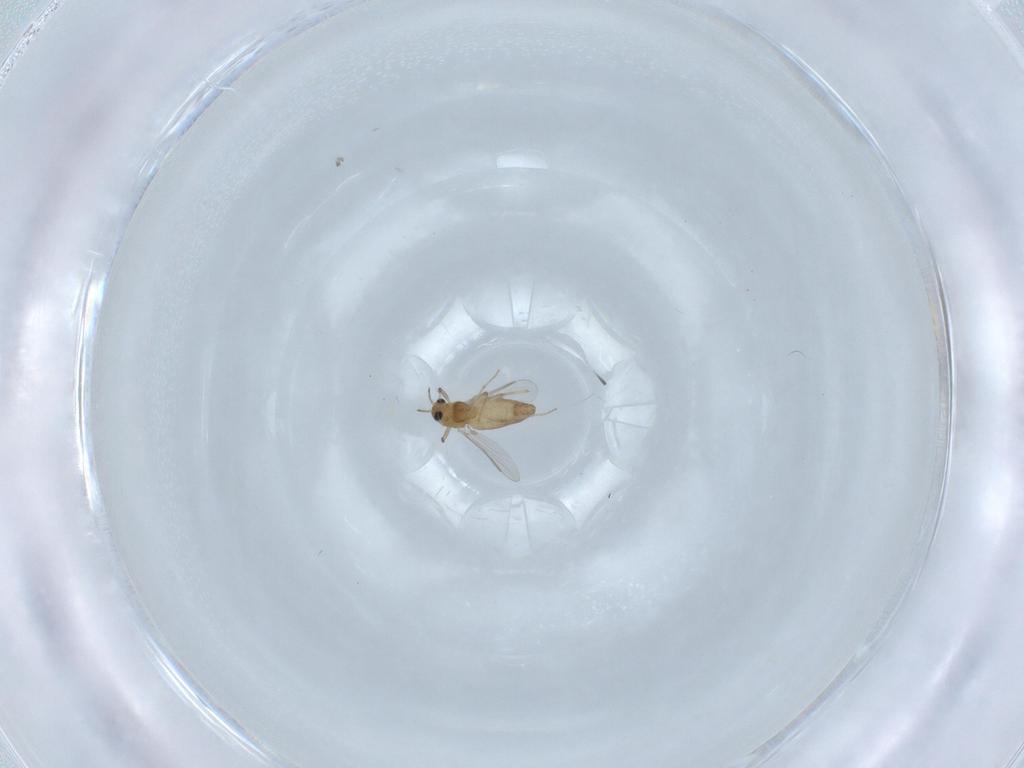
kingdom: Animalia
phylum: Arthropoda
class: Insecta
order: Diptera
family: Chironomidae
